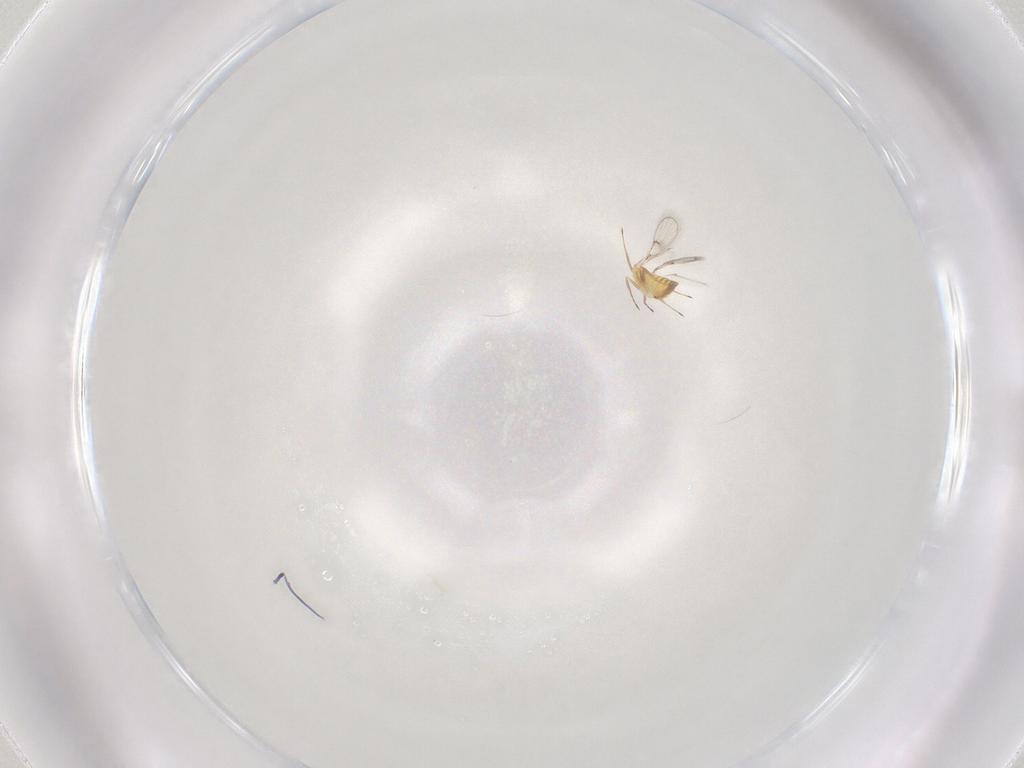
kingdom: Animalia
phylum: Arthropoda
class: Insecta
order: Hymenoptera
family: Trichogrammatidae
